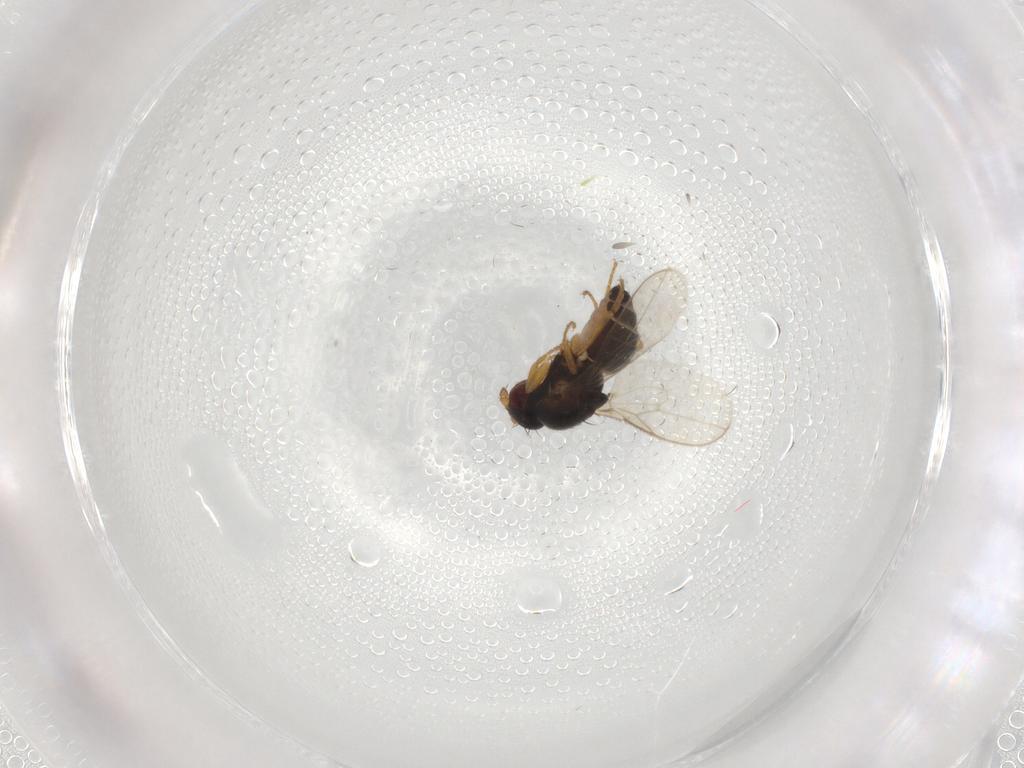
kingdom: Animalia
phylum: Arthropoda
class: Insecta
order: Diptera
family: Sphaeroceridae
